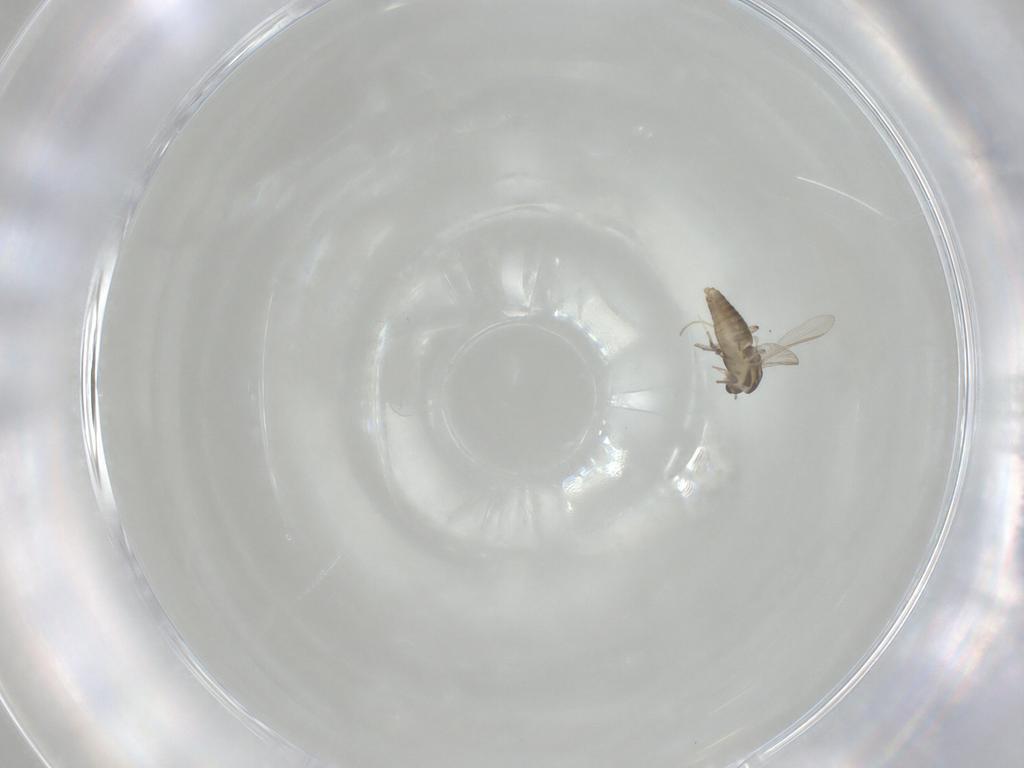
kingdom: Animalia
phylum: Arthropoda
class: Insecta
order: Diptera
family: Chironomidae
